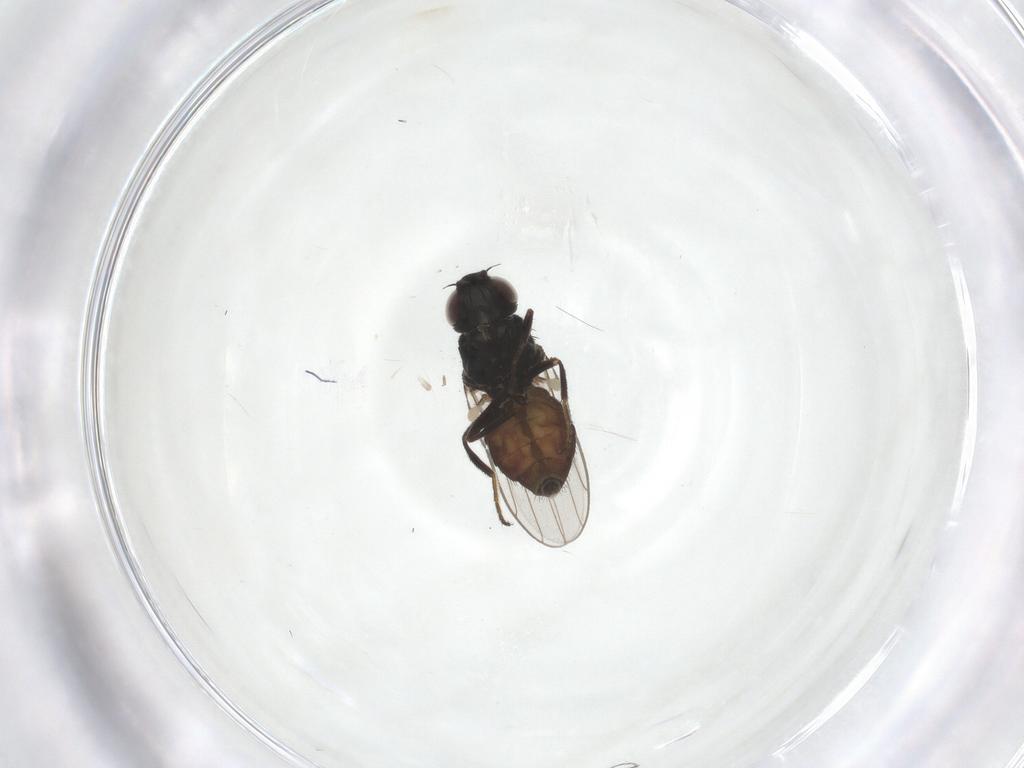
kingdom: Animalia
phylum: Arthropoda
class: Insecta
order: Diptera
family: Chloropidae
